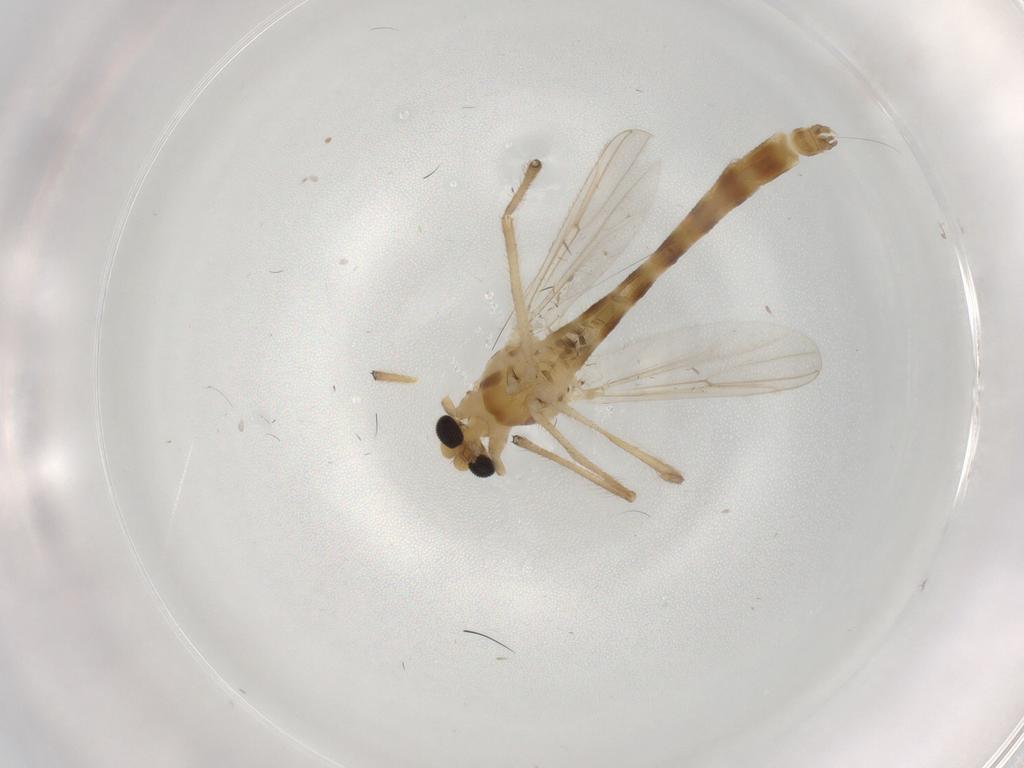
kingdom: Animalia
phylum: Arthropoda
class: Insecta
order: Diptera
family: Chironomidae
